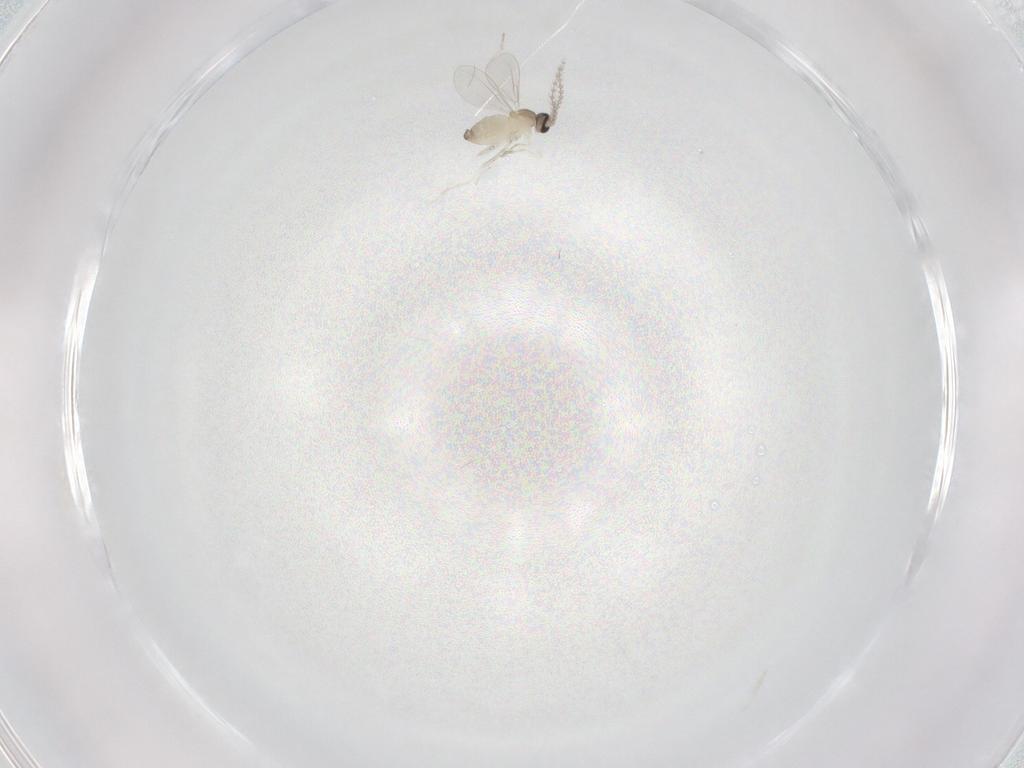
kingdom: Animalia
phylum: Arthropoda
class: Insecta
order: Diptera
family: Cecidomyiidae
